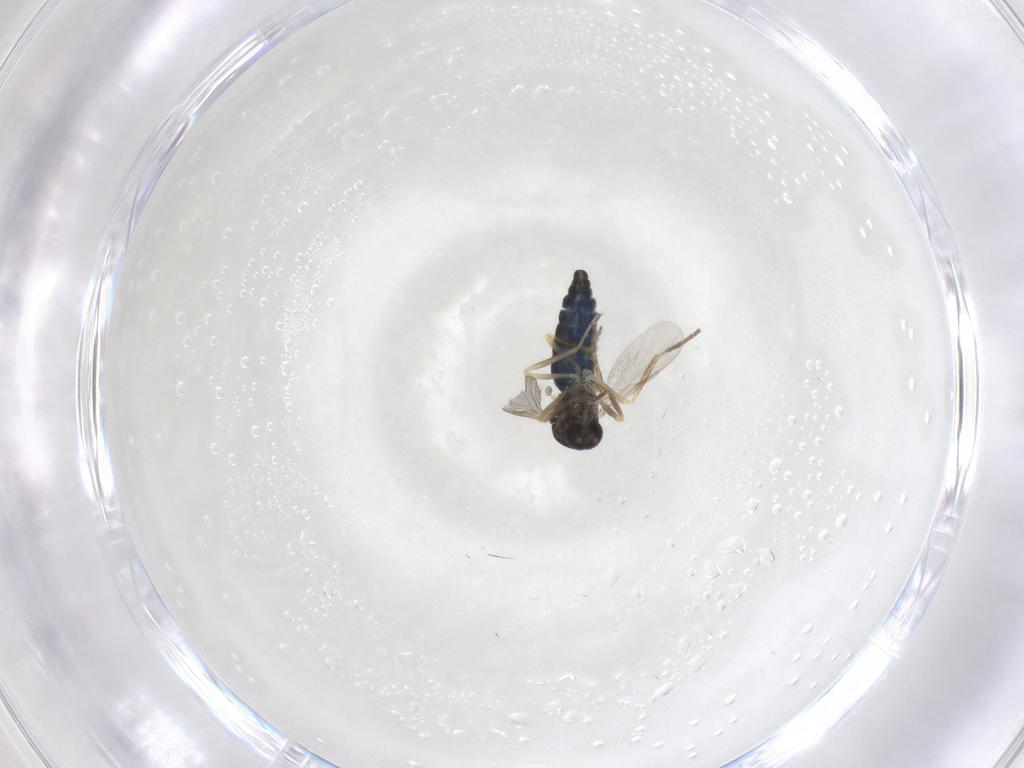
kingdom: Animalia
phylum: Arthropoda
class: Insecta
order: Diptera
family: Ceratopogonidae
